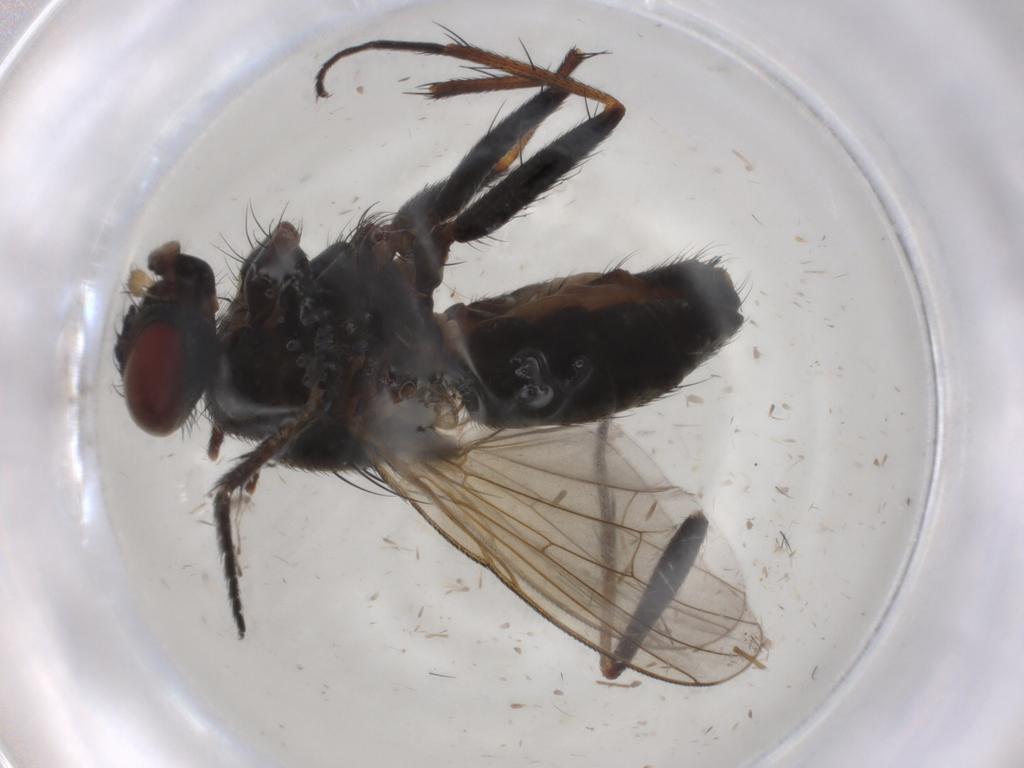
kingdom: Animalia
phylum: Arthropoda
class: Insecta
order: Diptera
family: Muscidae
